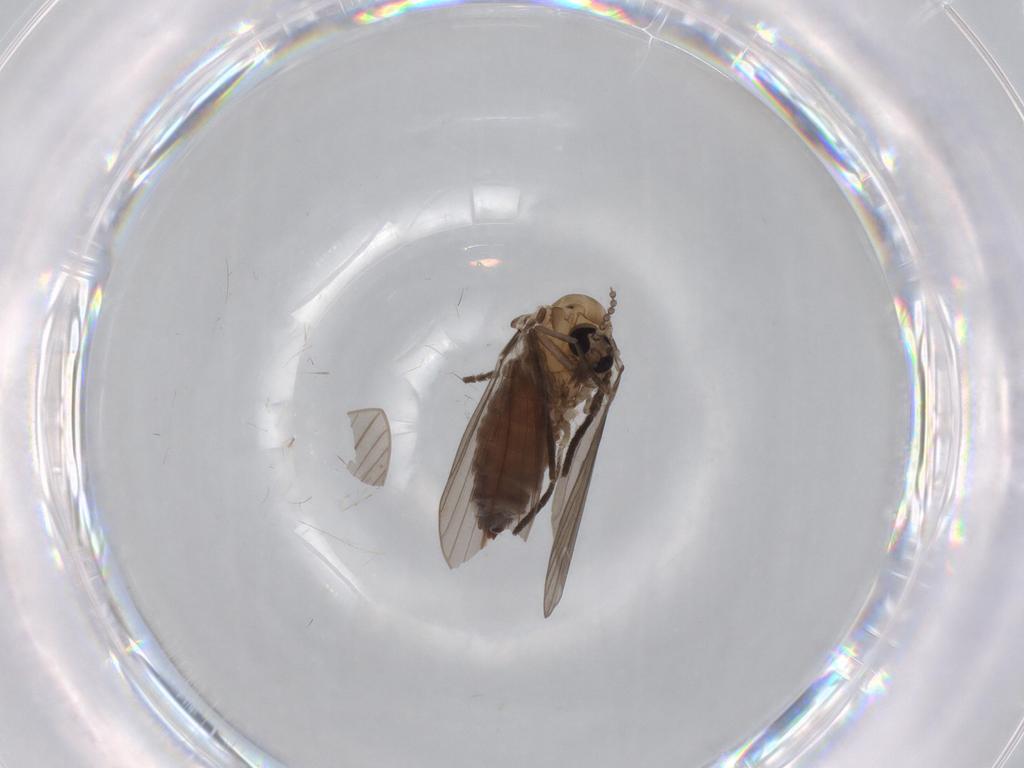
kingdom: Animalia
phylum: Arthropoda
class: Insecta
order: Diptera
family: Psychodidae
